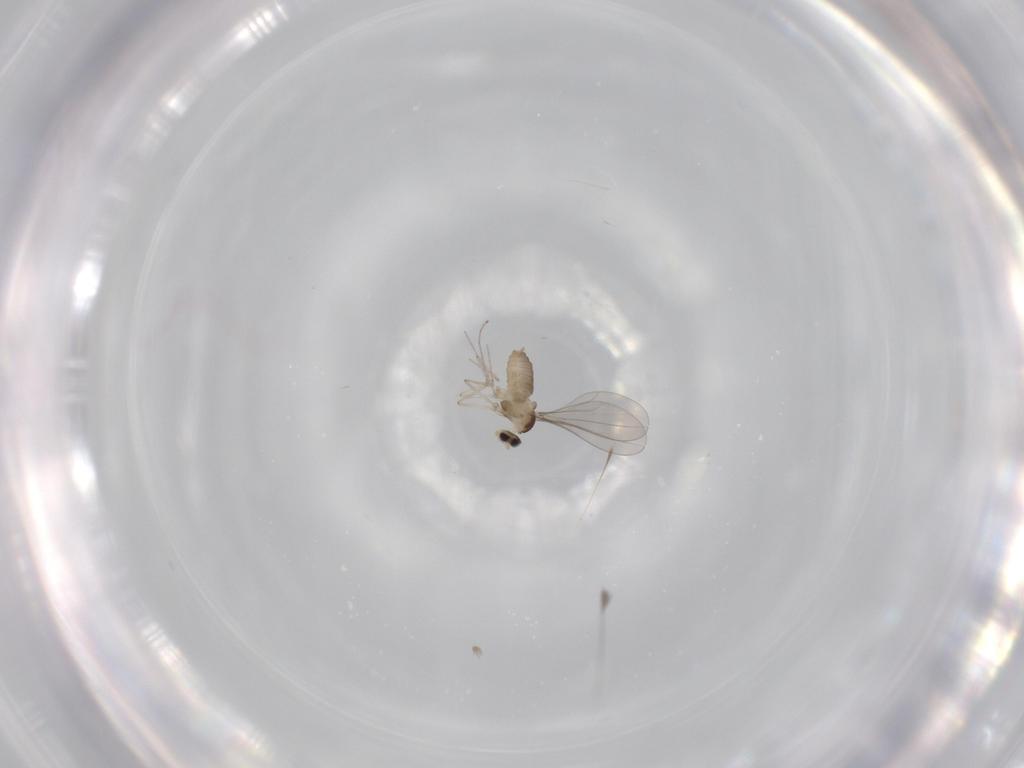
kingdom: Animalia
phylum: Arthropoda
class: Insecta
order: Diptera
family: Cecidomyiidae
